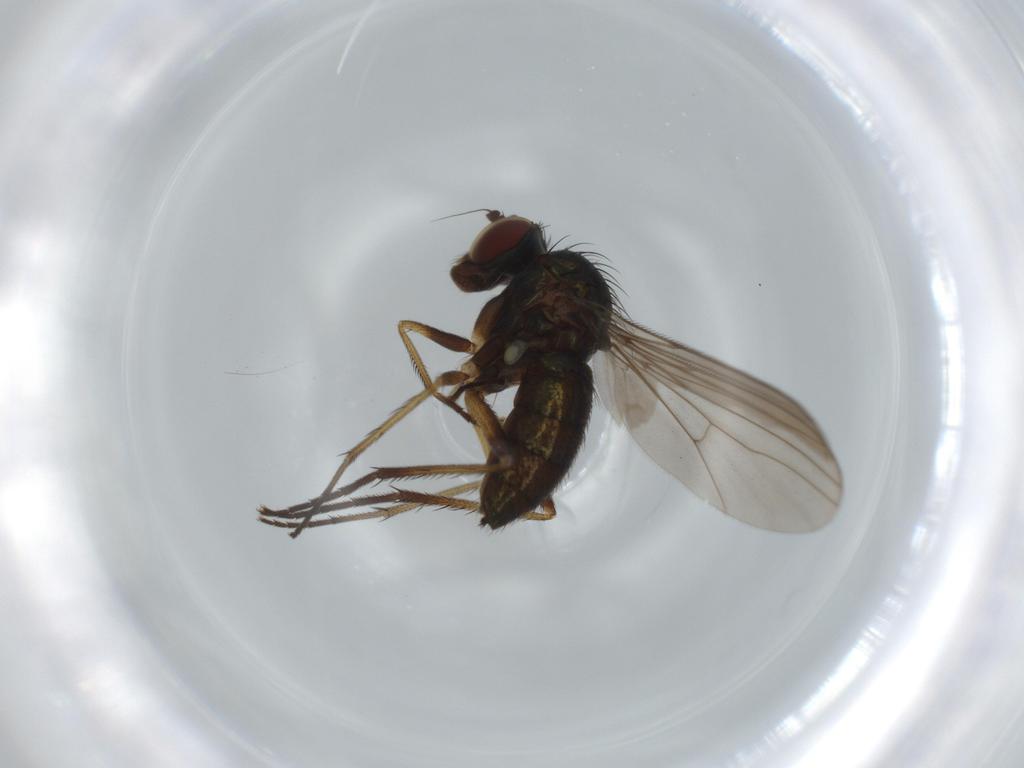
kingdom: Animalia
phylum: Arthropoda
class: Insecta
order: Diptera
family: Dolichopodidae
